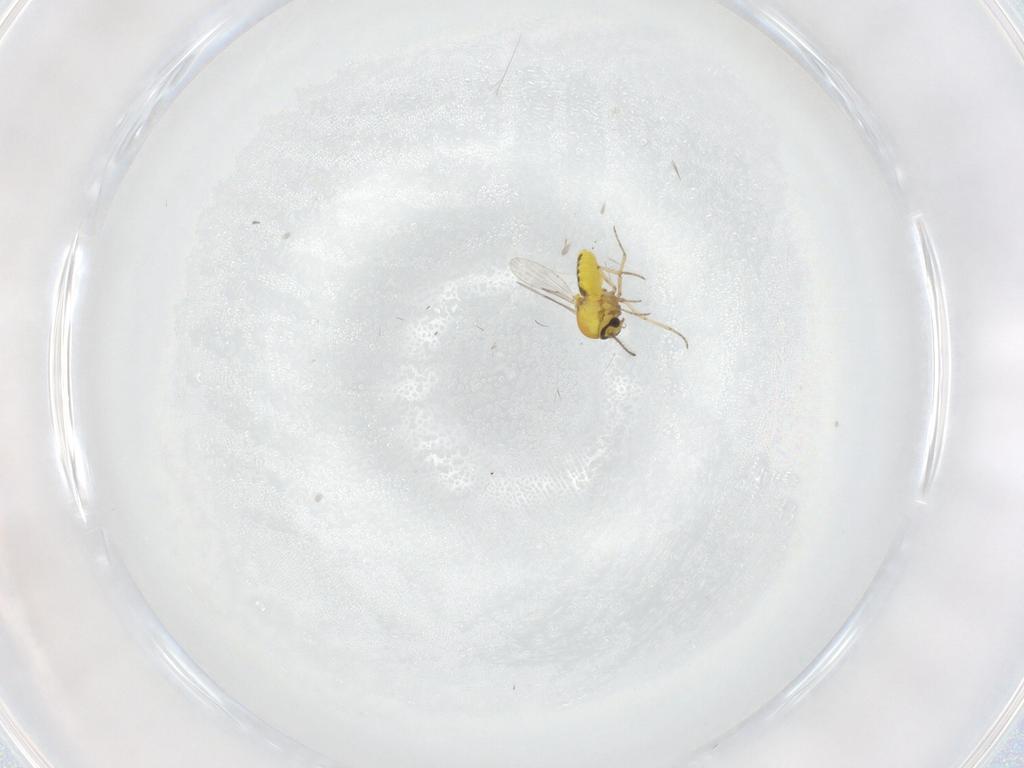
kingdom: Animalia
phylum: Arthropoda
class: Insecta
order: Diptera
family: Ceratopogonidae
